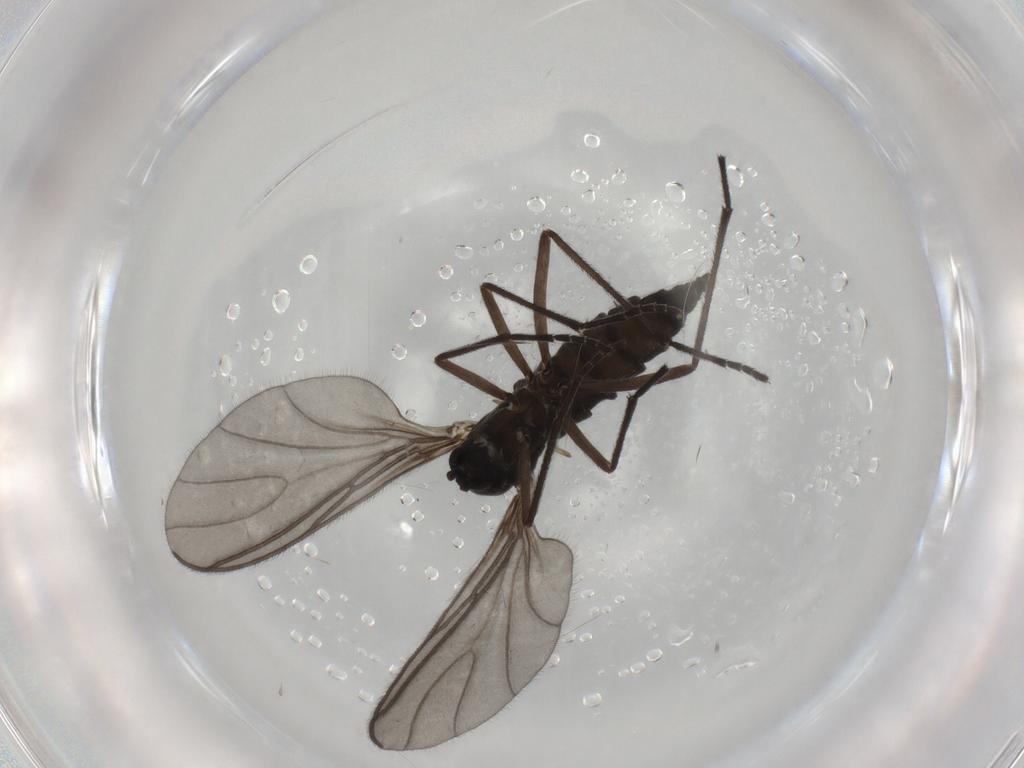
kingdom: Animalia
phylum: Arthropoda
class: Insecta
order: Diptera
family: Sciaridae
